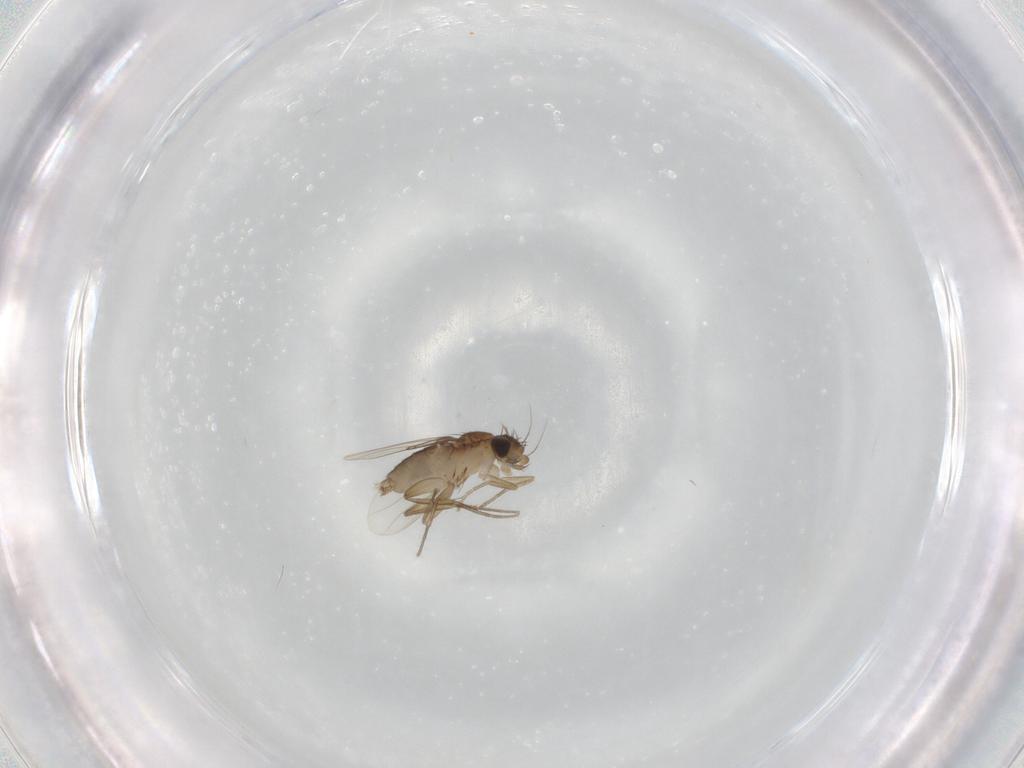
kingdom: Animalia
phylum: Arthropoda
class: Insecta
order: Diptera
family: Phoridae
